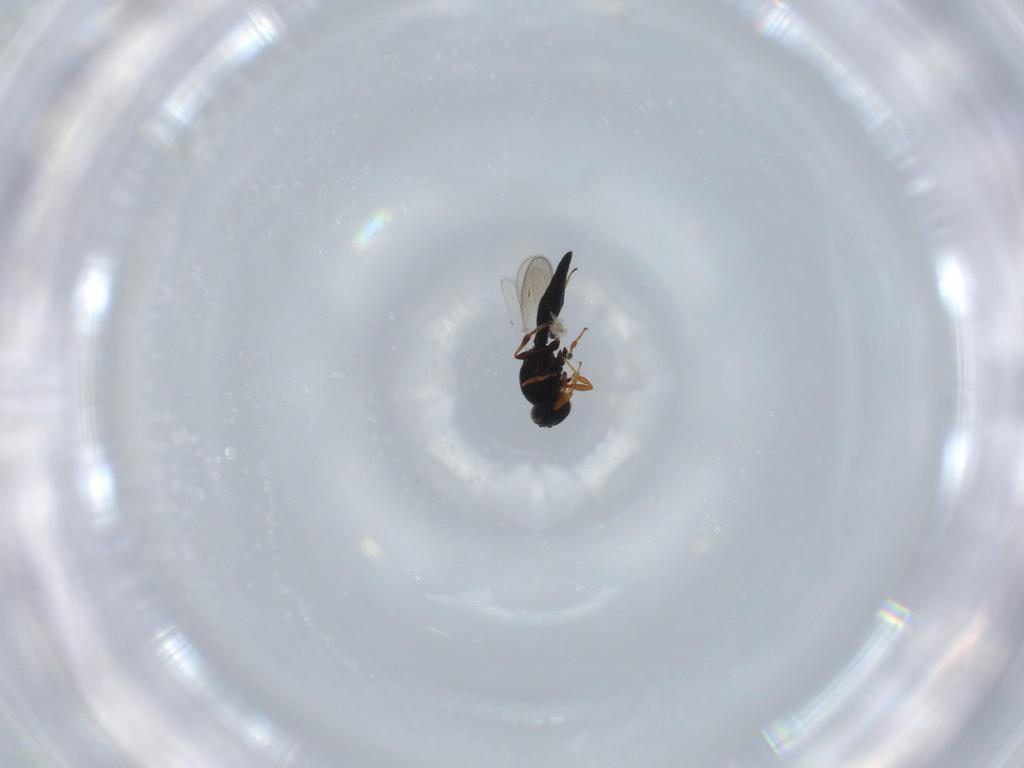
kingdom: Animalia
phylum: Arthropoda
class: Insecta
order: Hymenoptera
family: Platygastridae
